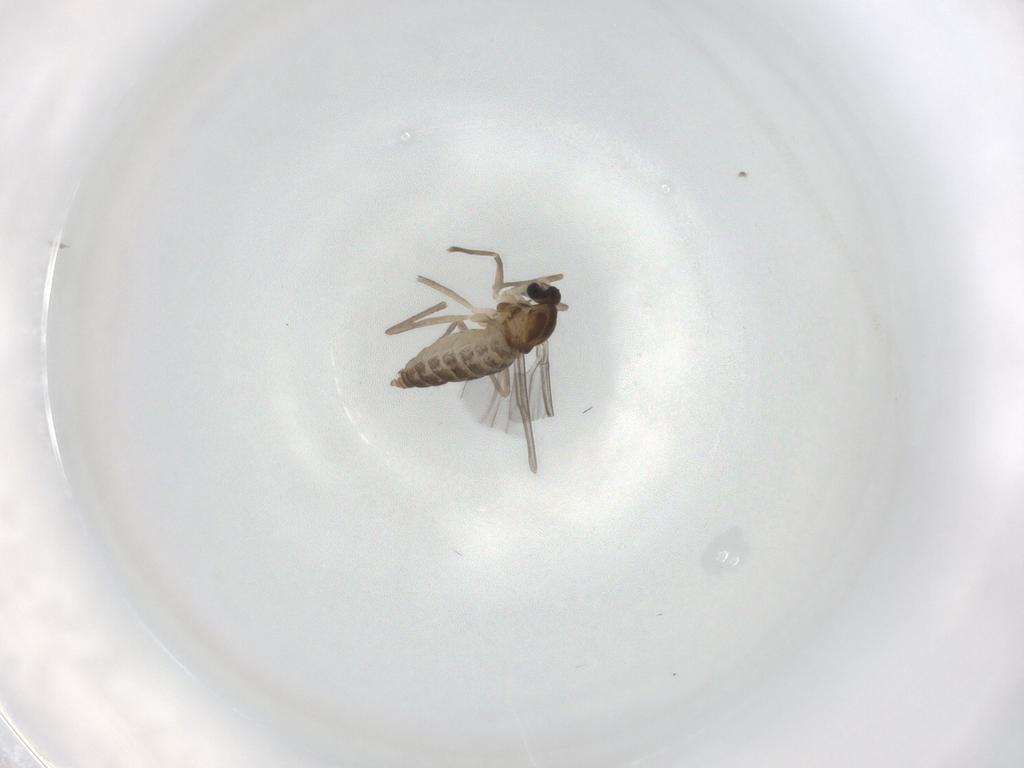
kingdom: Animalia
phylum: Arthropoda
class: Insecta
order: Diptera
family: Cecidomyiidae
